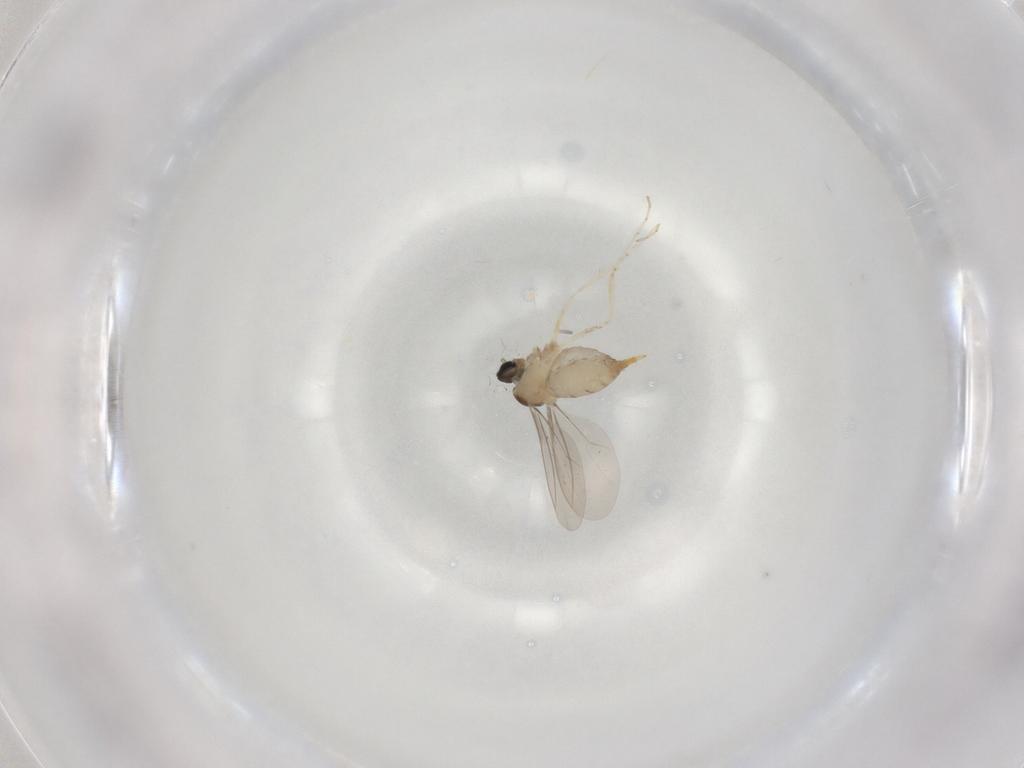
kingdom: Animalia
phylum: Arthropoda
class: Insecta
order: Diptera
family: Cecidomyiidae
